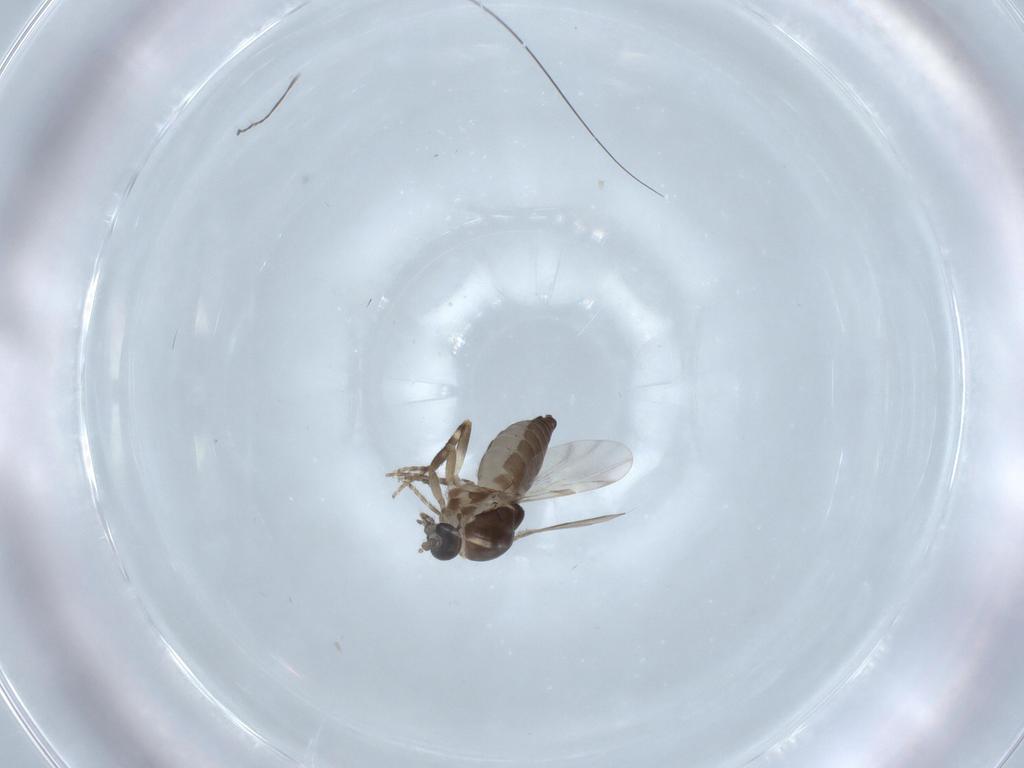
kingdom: Animalia
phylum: Arthropoda
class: Insecta
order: Diptera
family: Ceratopogonidae
